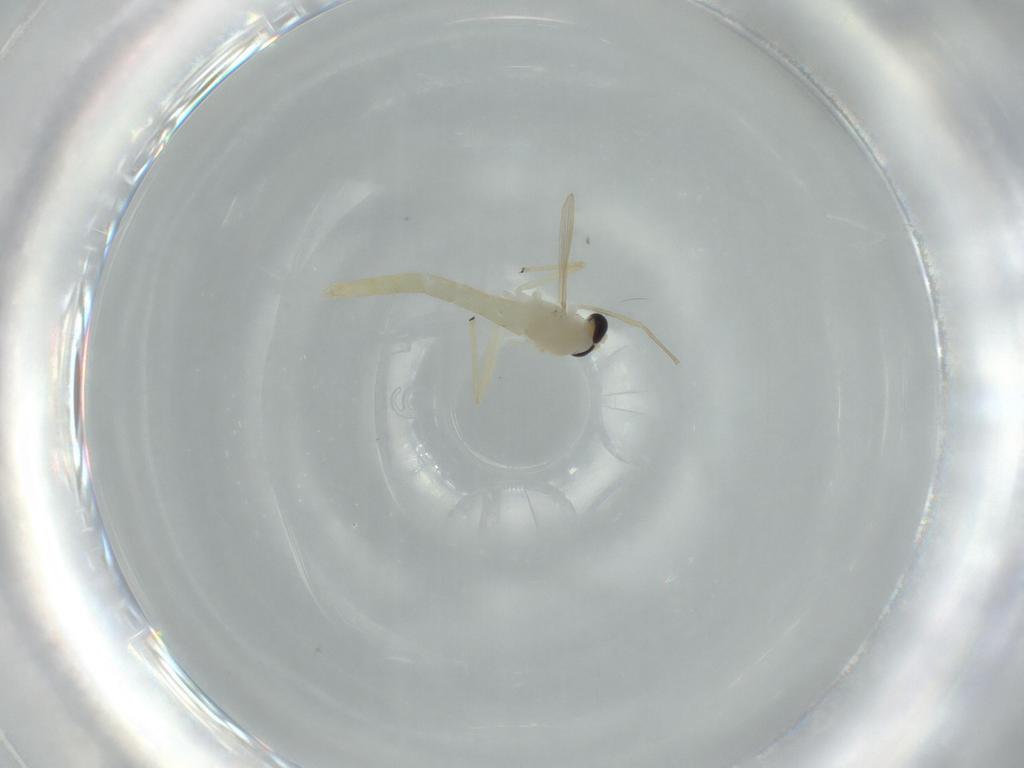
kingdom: Animalia
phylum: Arthropoda
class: Insecta
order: Diptera
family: Chironomidae
